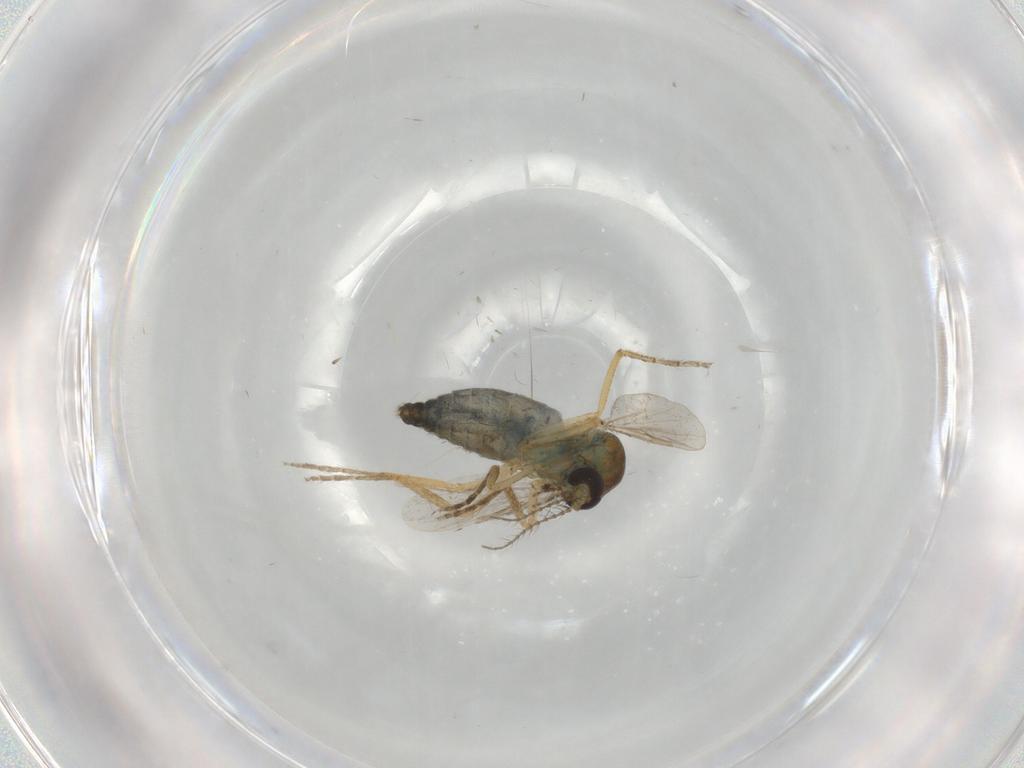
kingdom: Animalia
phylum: Arthropoda
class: Insecta
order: Diptera
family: Ceratopogonidae
